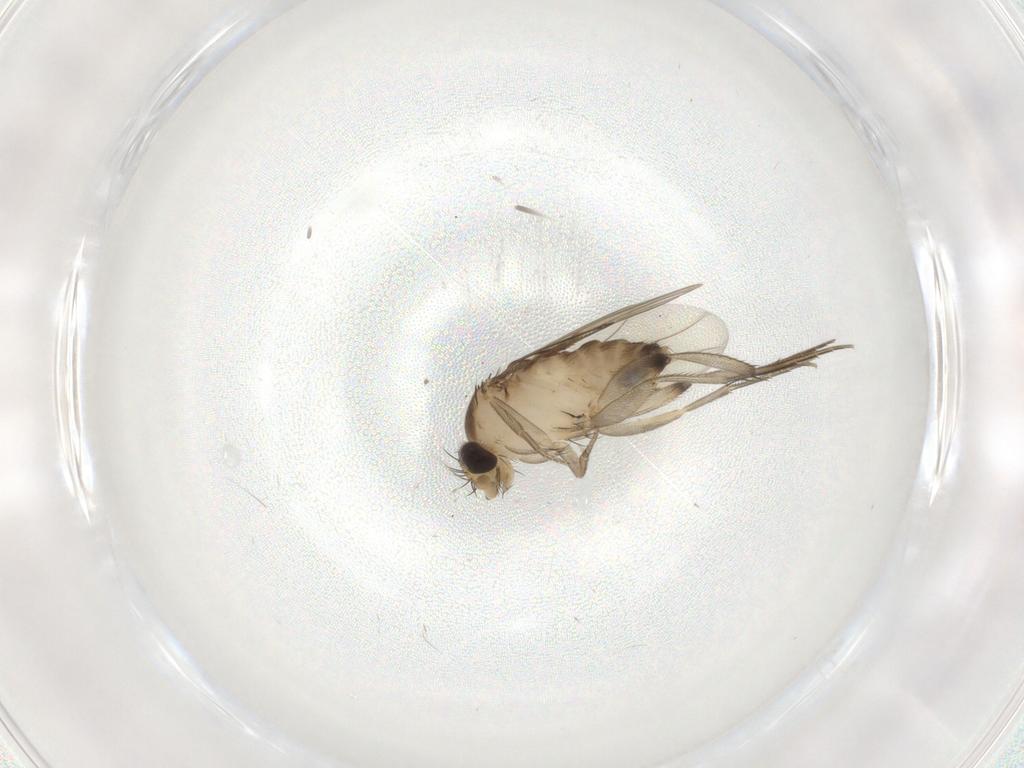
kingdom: Animalia
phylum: Arthropoda
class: Insecta
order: Diptera
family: Phoridae
